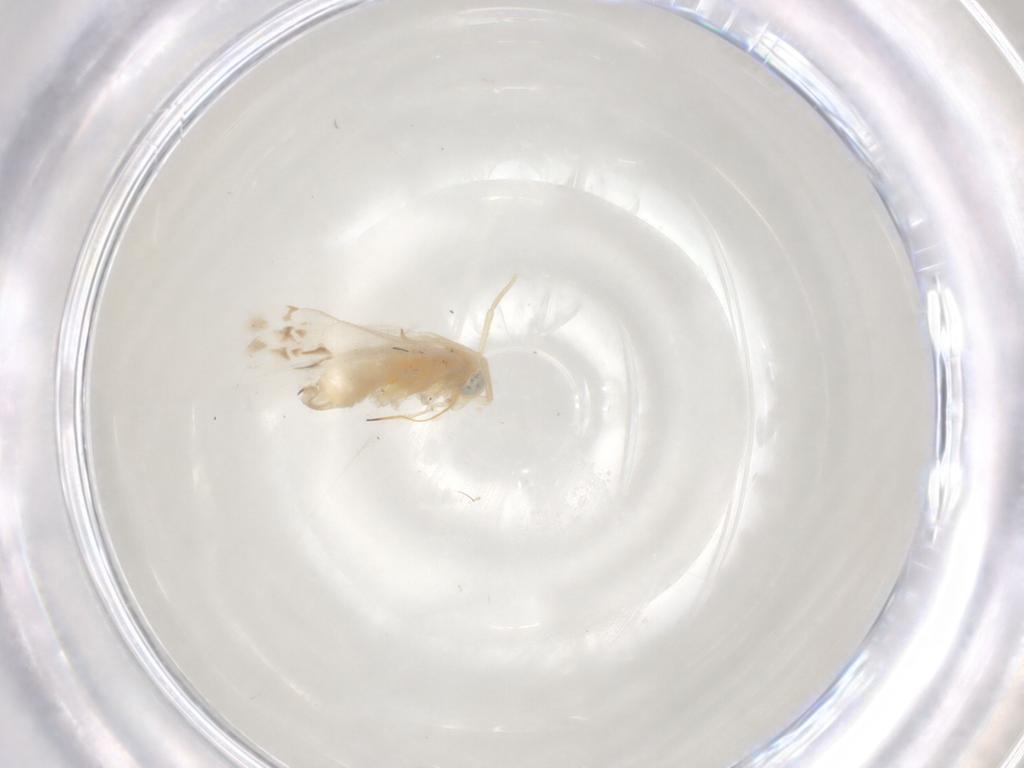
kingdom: Animalia
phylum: Arthropoda
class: Insecta
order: Hemiptera
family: Miridae
